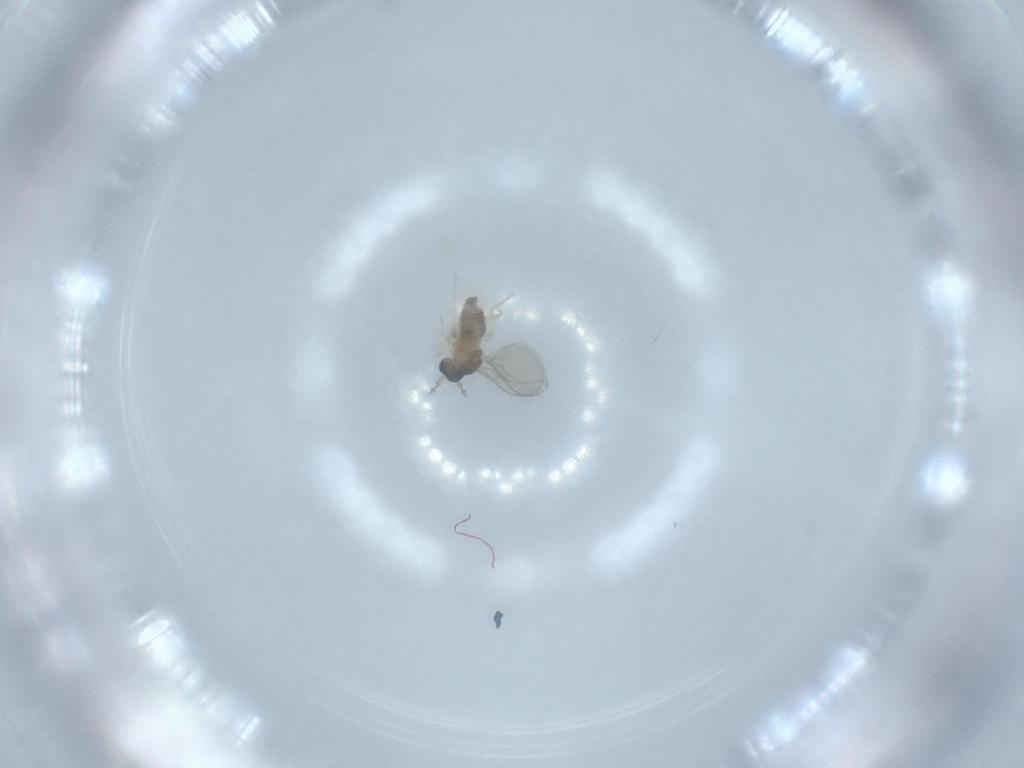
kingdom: Animalia
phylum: Arthropoda
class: Insecta
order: Diptera
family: Cecidomyiidae
